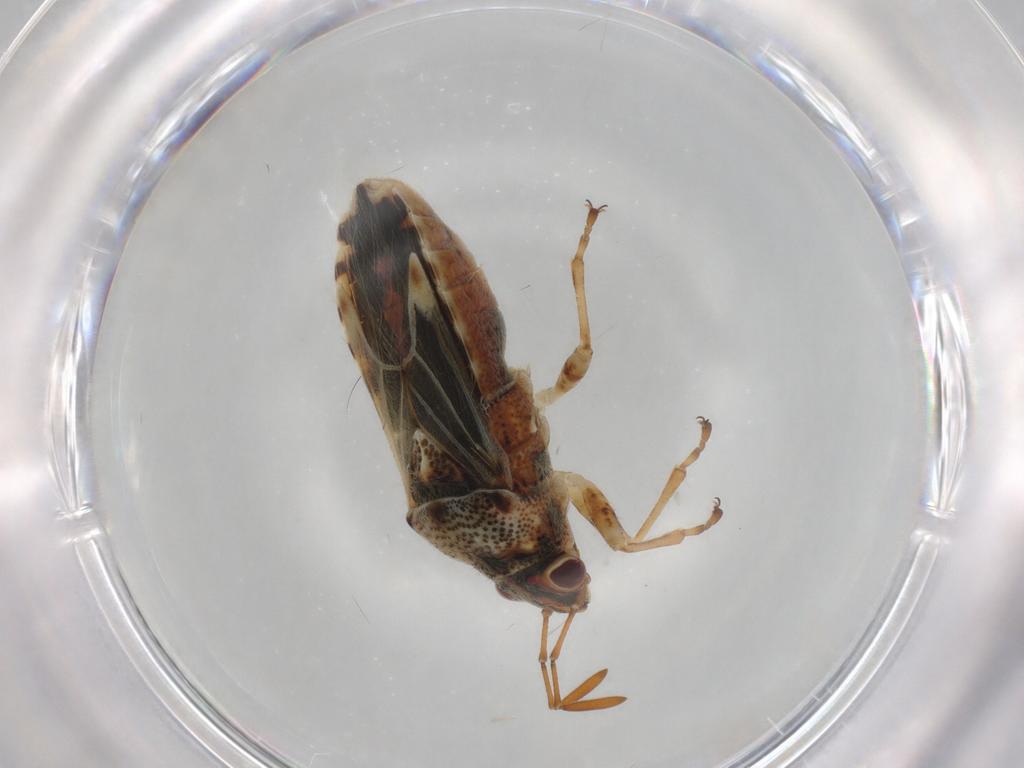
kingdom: Animalia
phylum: Arthropoda
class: Insecta
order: Hemiptera
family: Lygaeidae
